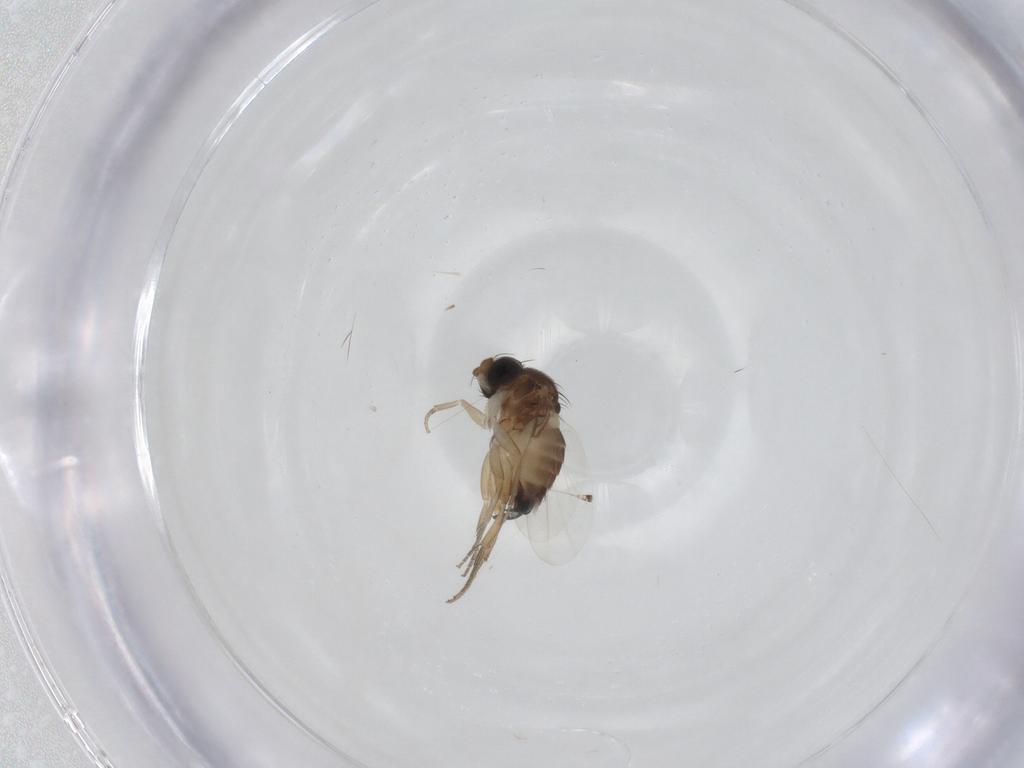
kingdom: Animalia
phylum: Arthropoda
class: Insecta
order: Diptera
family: Phoridae
